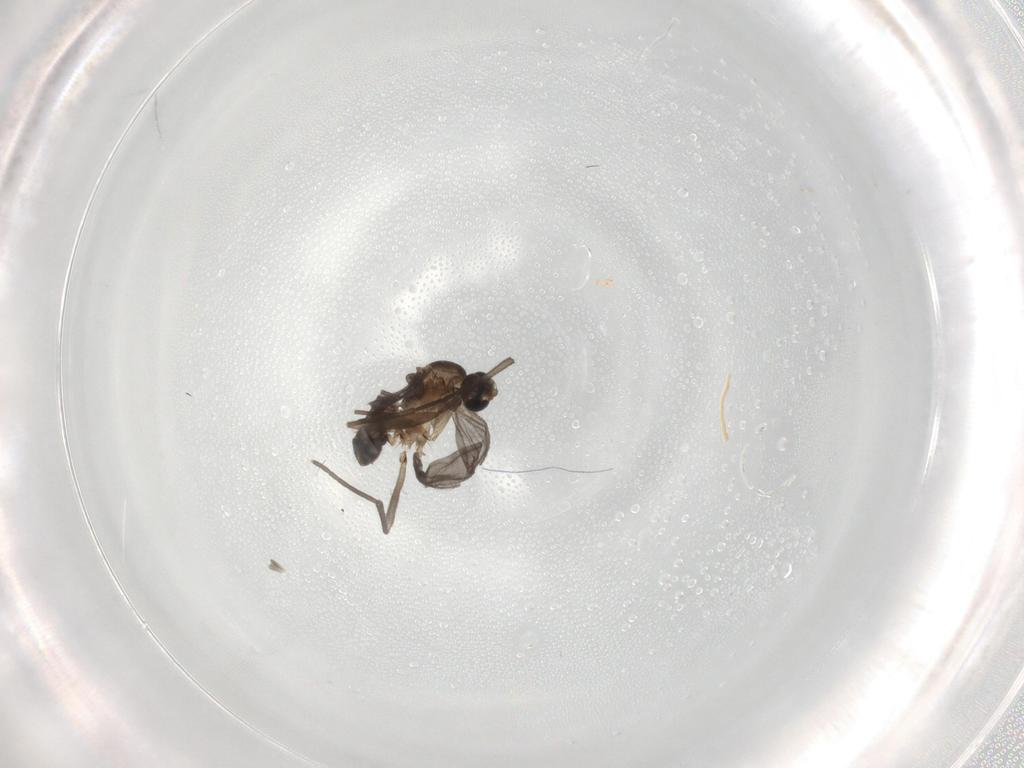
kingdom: Animalia
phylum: Arthropoda
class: Insecta
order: Diptera
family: Sciaridae
